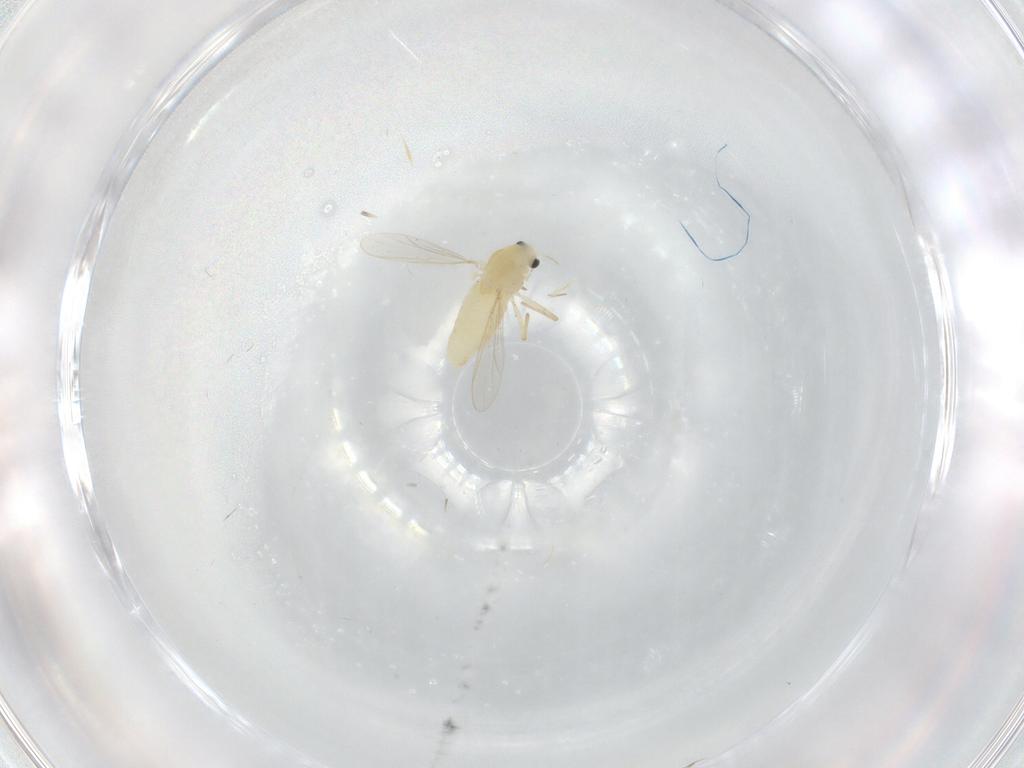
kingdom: Animalia
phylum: Arthropoda
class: Insecta
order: Diptera
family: Chironomidae
